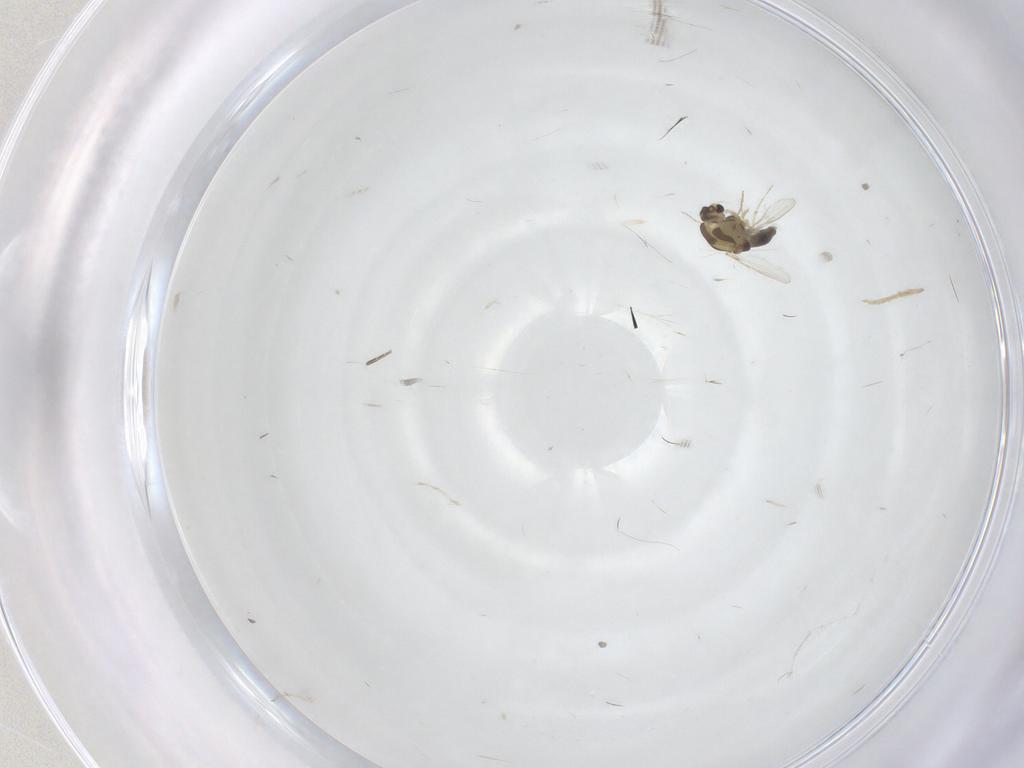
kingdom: Animalia
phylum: Arthropoda
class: Insecta
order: Diptera
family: Chironomidae
